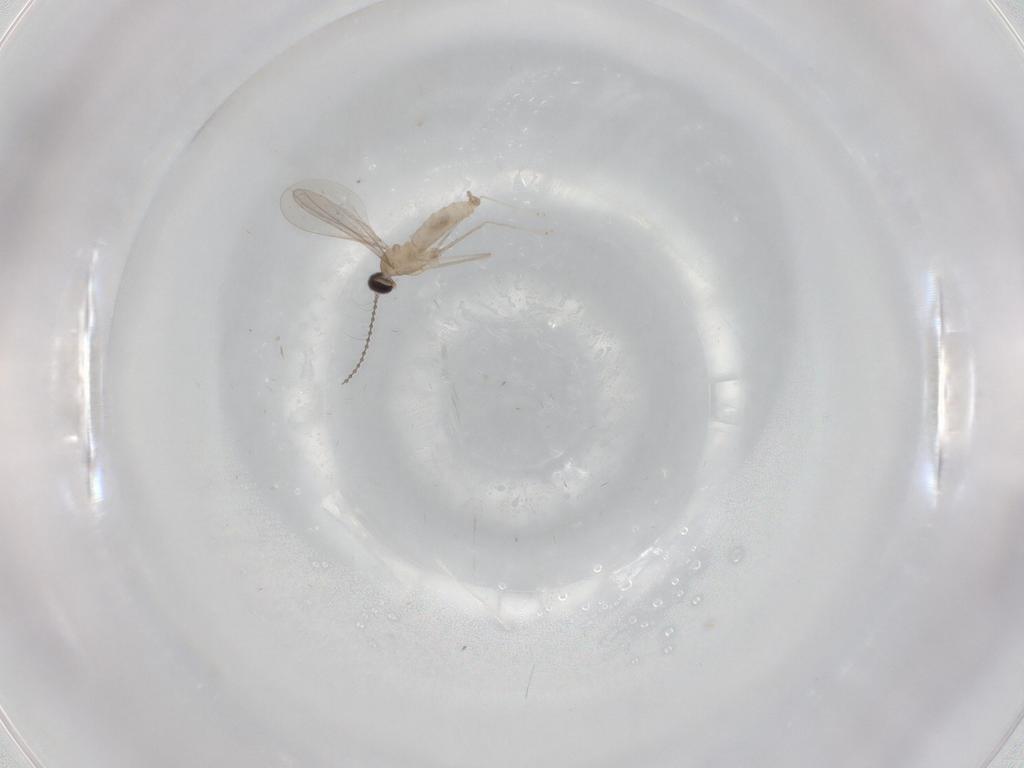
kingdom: Animalia
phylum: Arthropoda
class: Insecta
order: Diptera
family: Cecidomyiidae
